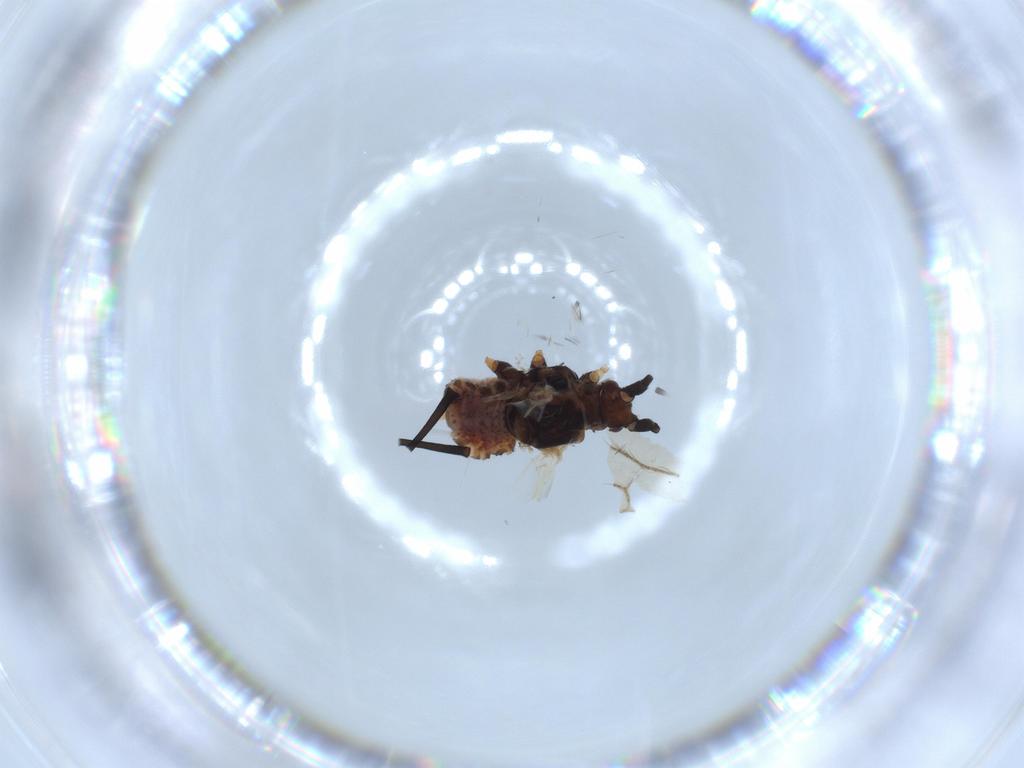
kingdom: Animalia
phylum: Arthropoda
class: Insecta
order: Hemiptera
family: Aphididae
